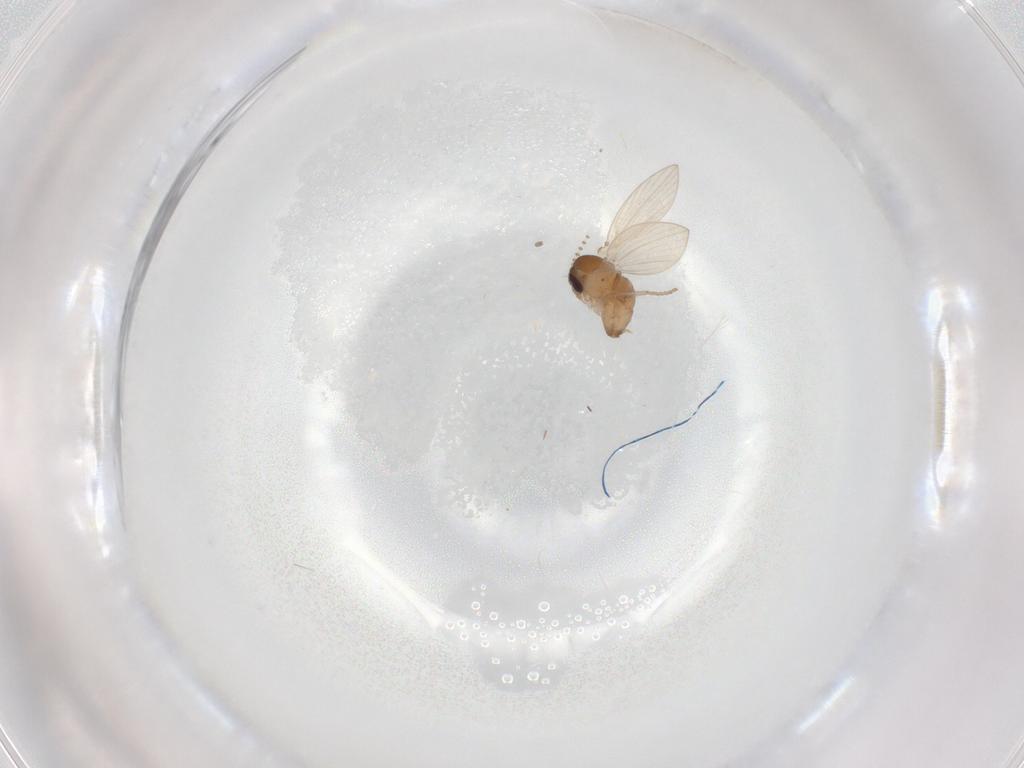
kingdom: Animalia
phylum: Arthropoda
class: Insecta
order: Diptera
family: Psychodidae
